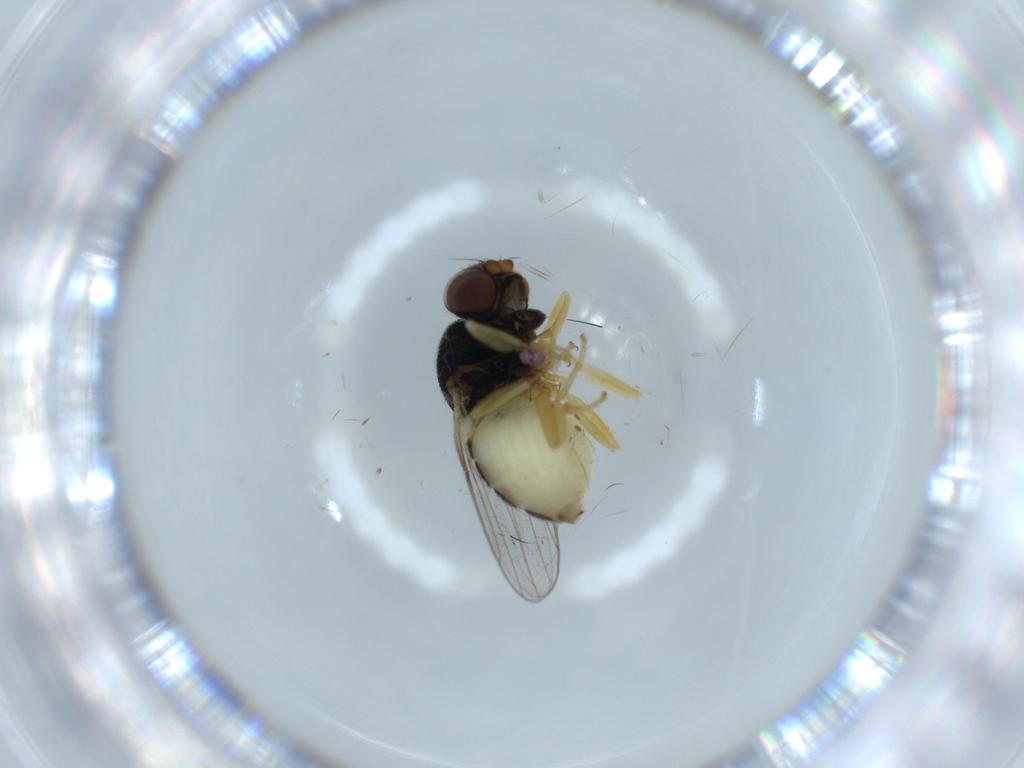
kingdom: Animalia
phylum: Arthropoda
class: Insecta
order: Diptera
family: Chloropidae
